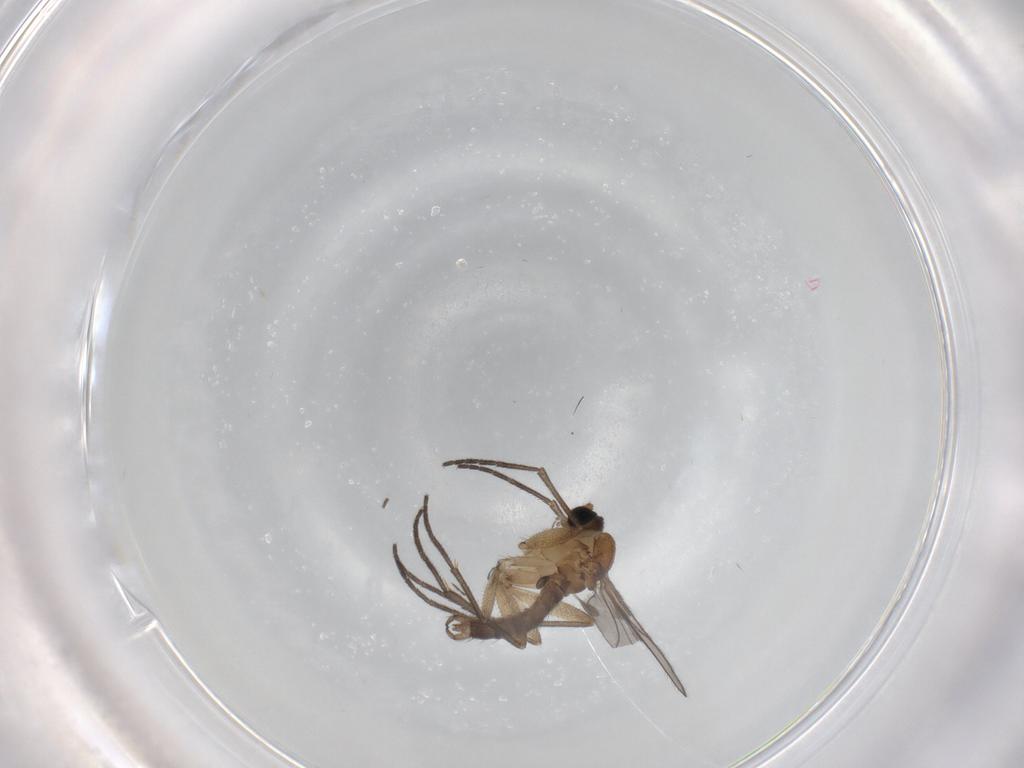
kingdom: Animalia
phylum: Arthropoda
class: Insecta
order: Diptera
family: Sciaridae
